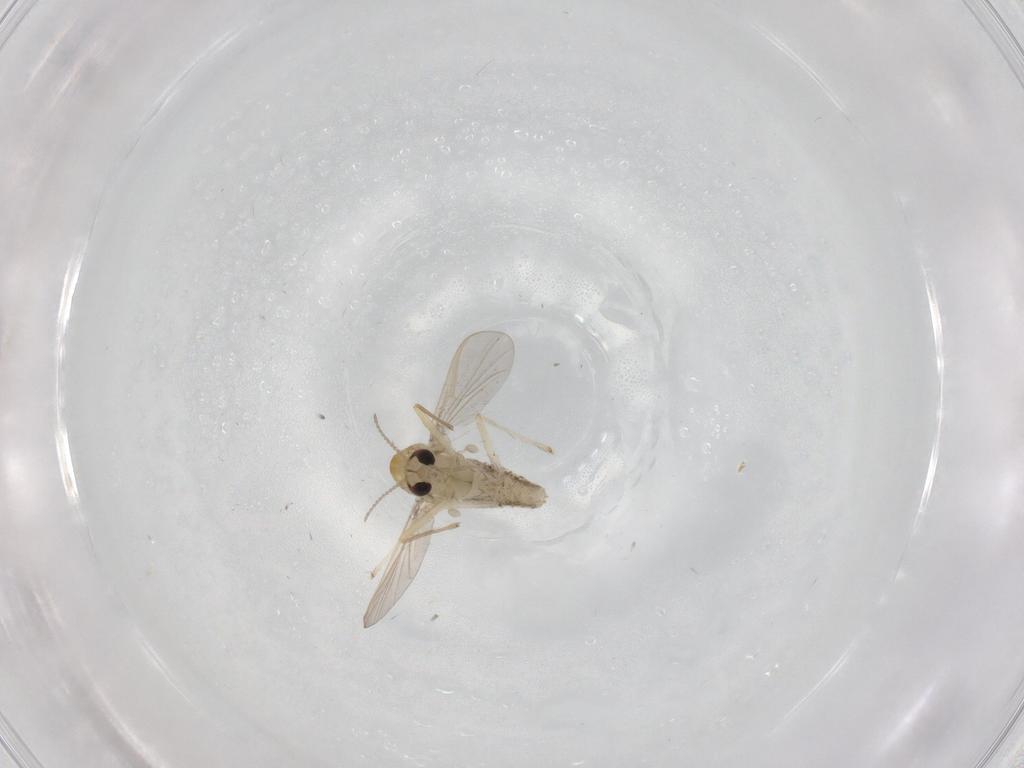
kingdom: Animalia
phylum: Arthropoda
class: Insecta
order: Diptera
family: Chironomidae
